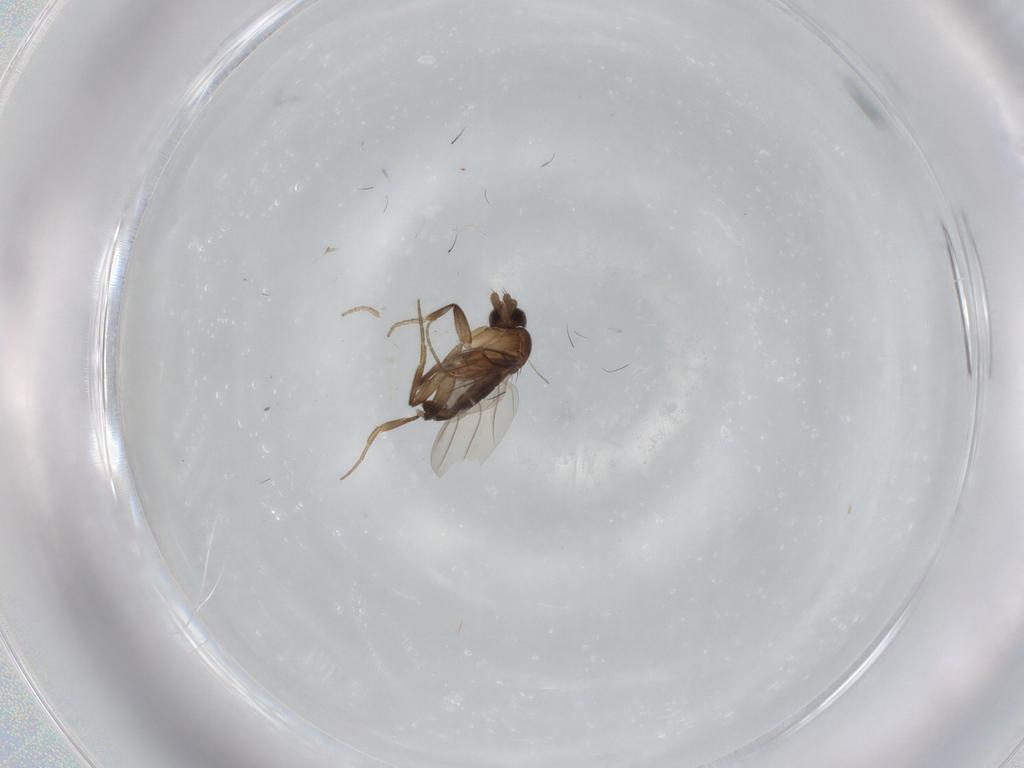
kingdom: Animalia
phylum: Arthropoda
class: Insecta
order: Diptera
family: Phoridae
